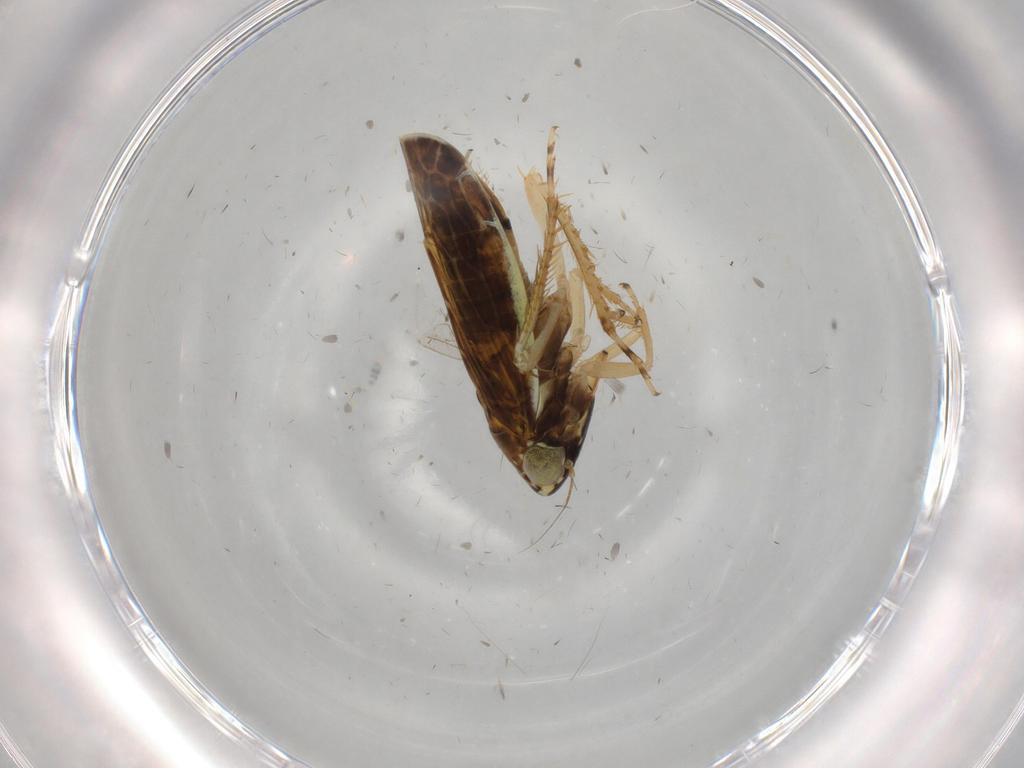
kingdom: Animalia
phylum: Arthropoda
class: Insecta
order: Hemiptera
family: Cicadellidae
